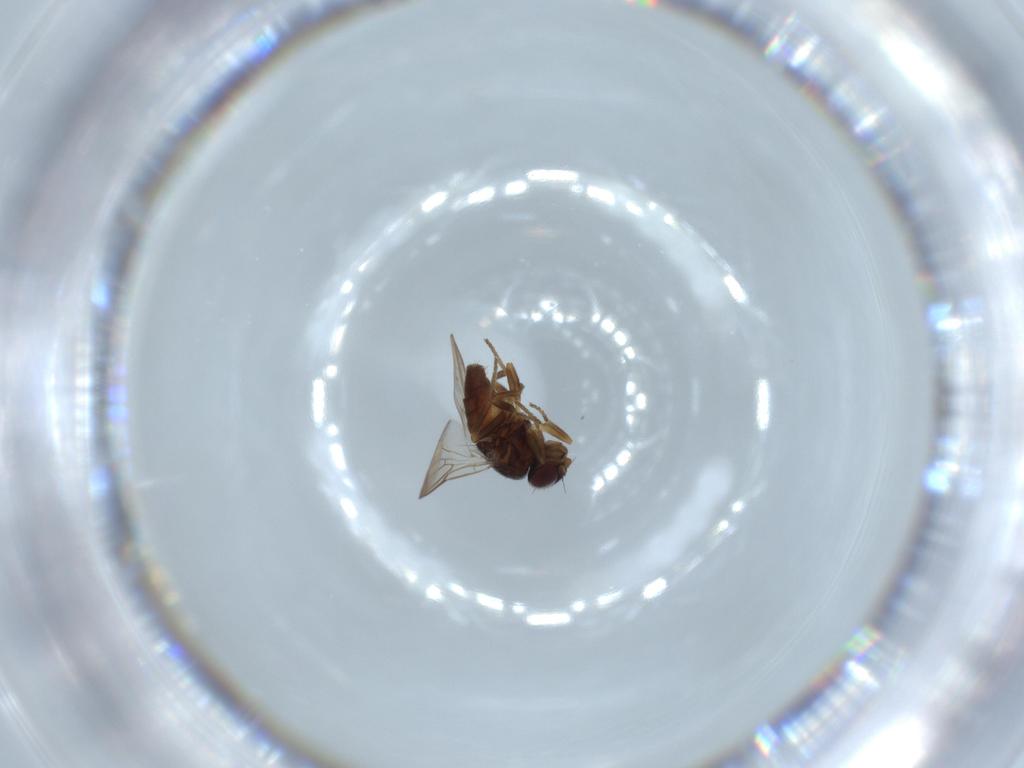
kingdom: Animalia
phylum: Arthropoda
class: Insecta
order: Diptera
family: Chloropidae
